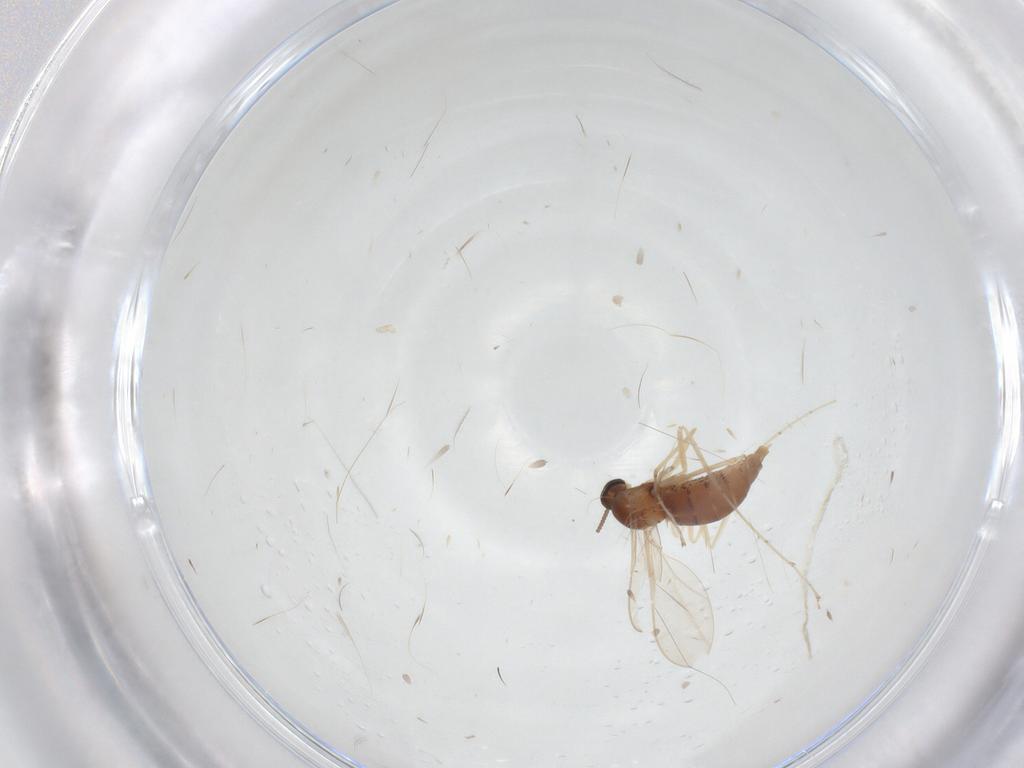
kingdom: Animalia
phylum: Arthropoda
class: Insecta
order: Diptera
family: Cecidomyiidae
